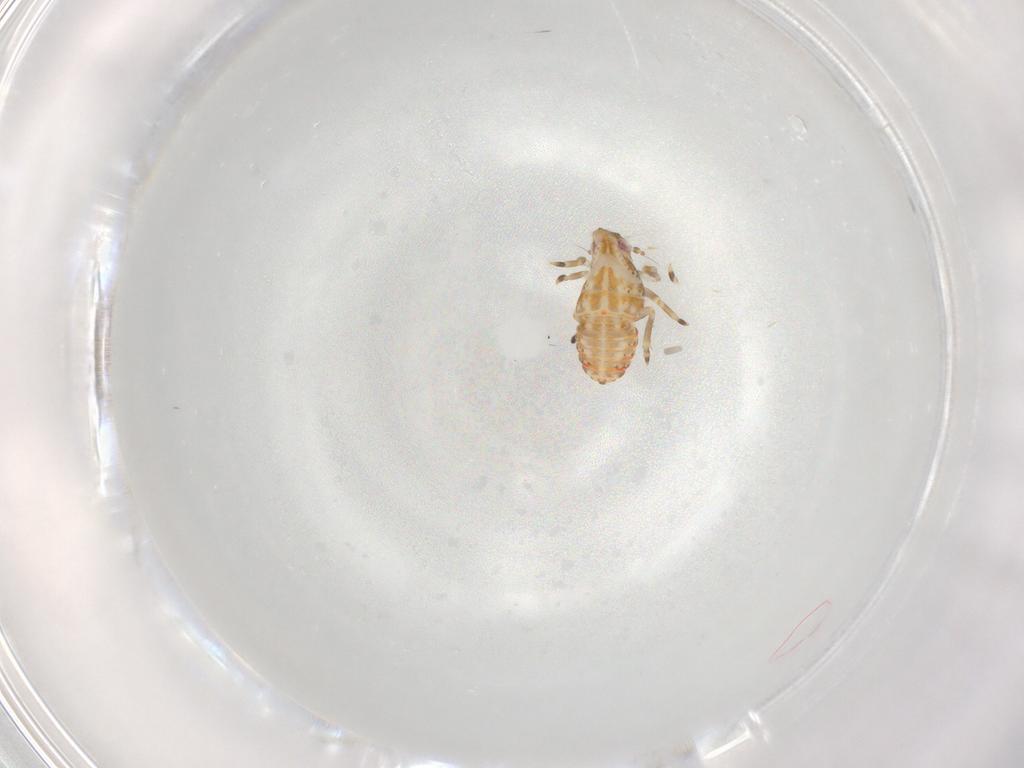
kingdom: Animalia
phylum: Arthropoda
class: Insecta
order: Hemiptera
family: Flatidae
